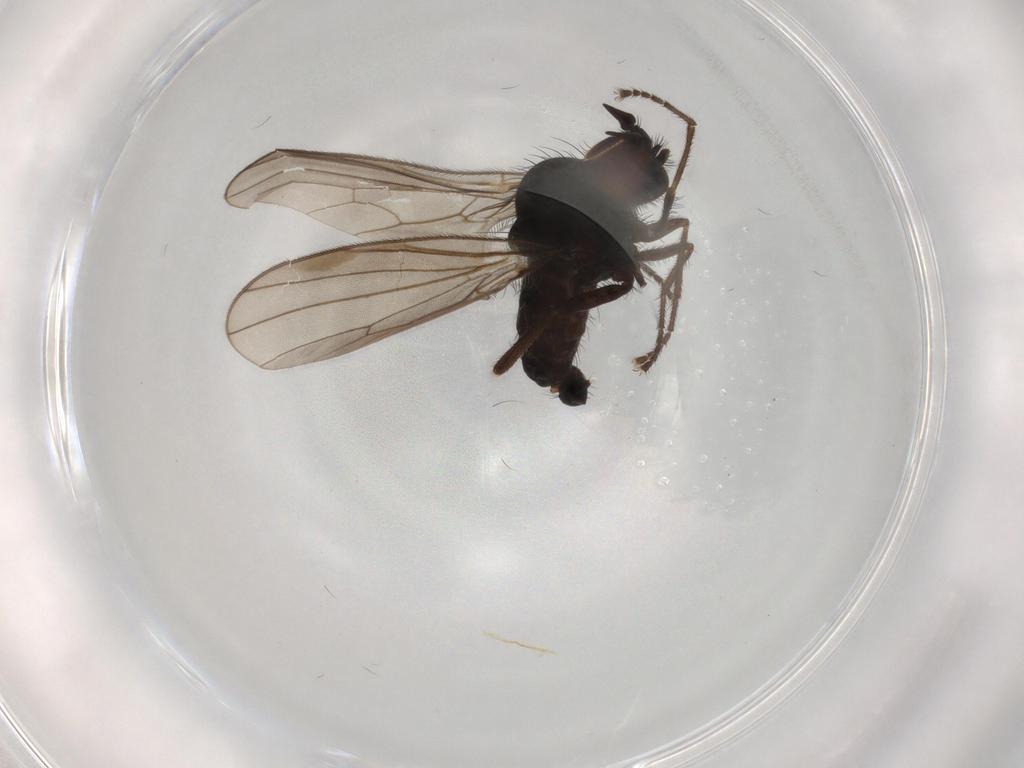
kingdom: Animalia
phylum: Arthropoda
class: Insecta
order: Diptera
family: Dolichopodidae
